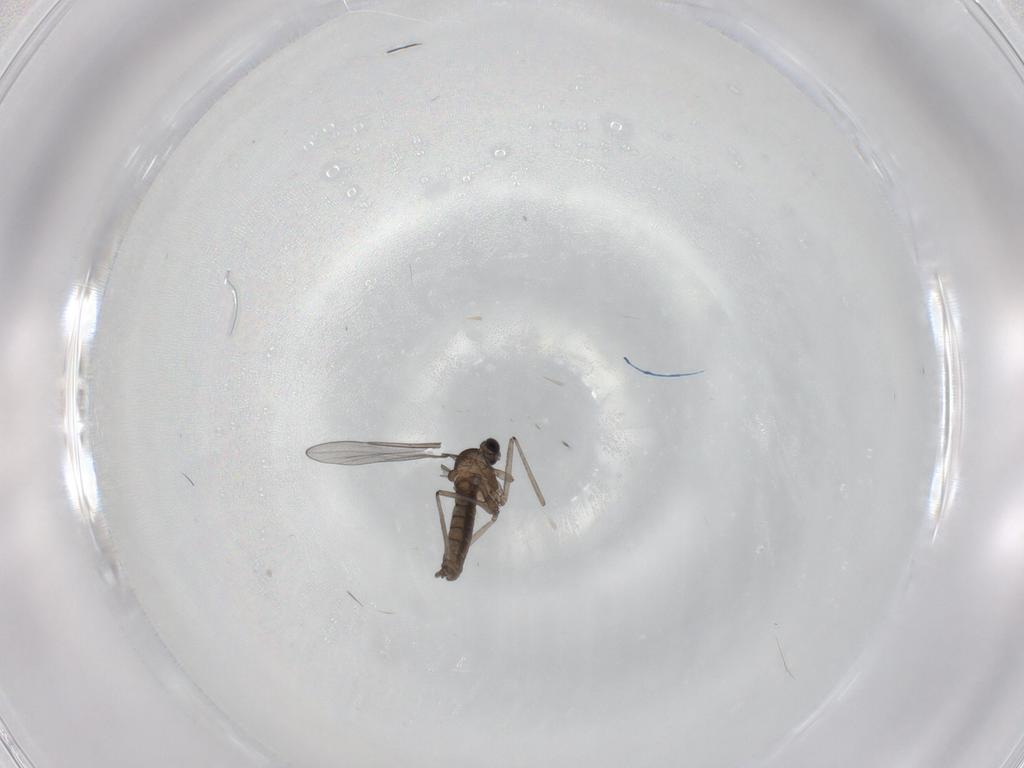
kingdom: Animalia
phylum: Arthropoda
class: Insecta
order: Diptera
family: Cecidomyiidae
